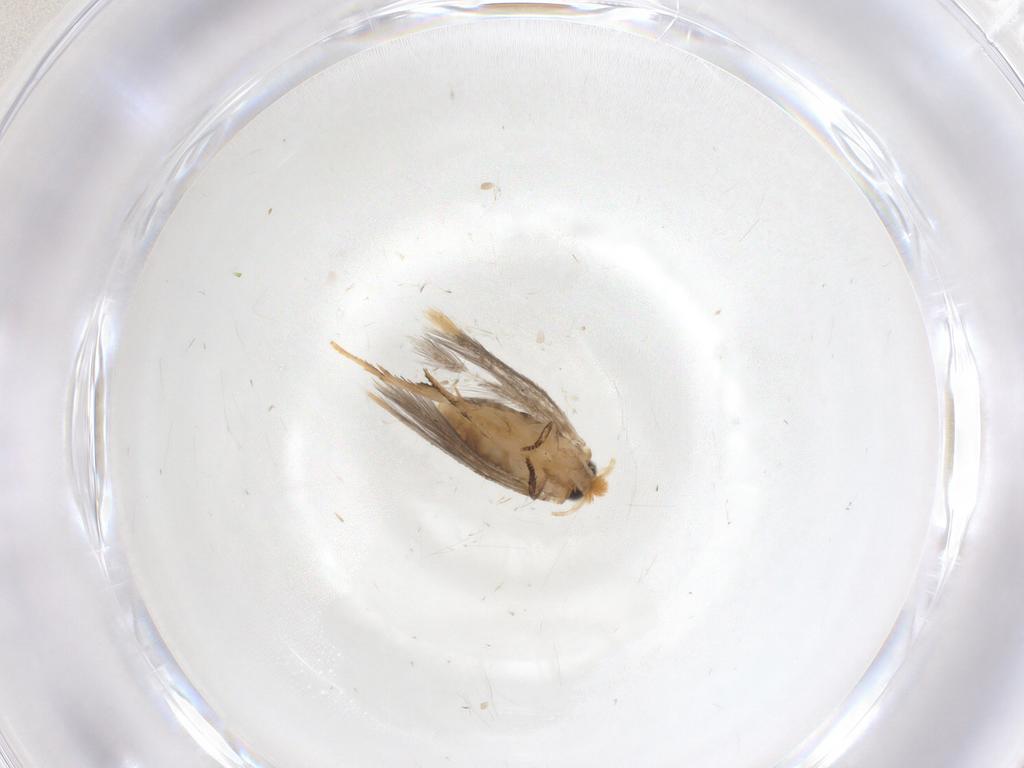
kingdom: Animalia
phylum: Arthropoda
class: Insecta
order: Lepidoptera
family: Nepticulidae
